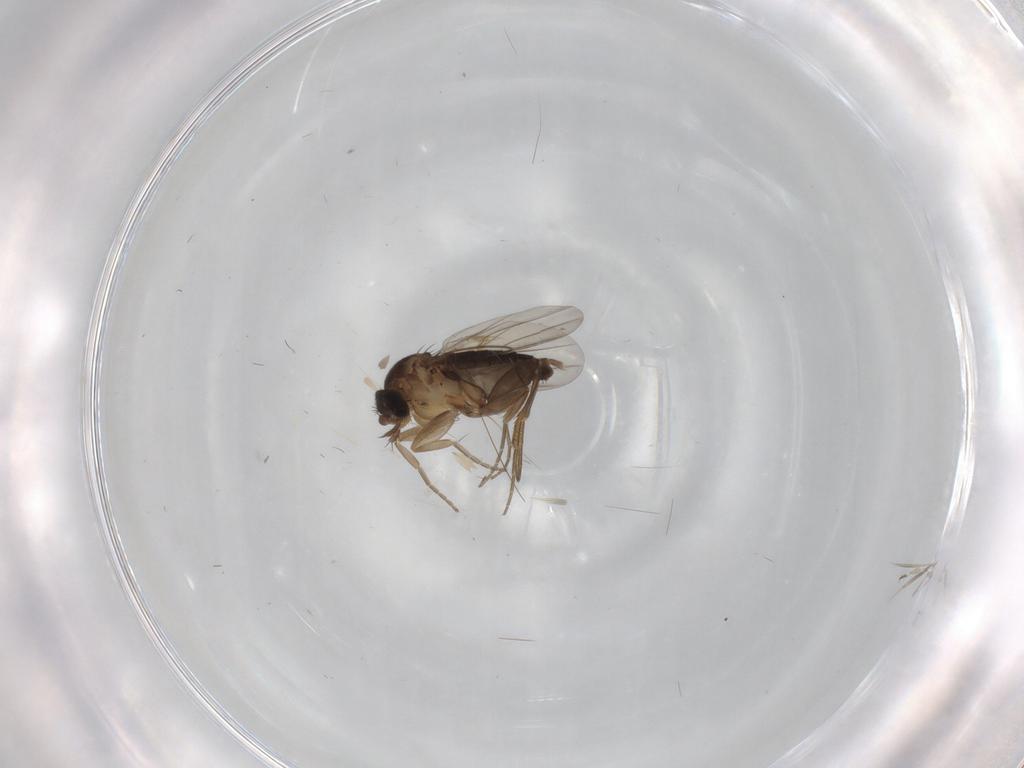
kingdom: Animalia
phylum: Arthropoda
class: Insecta
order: Diptera
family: Phoridae
